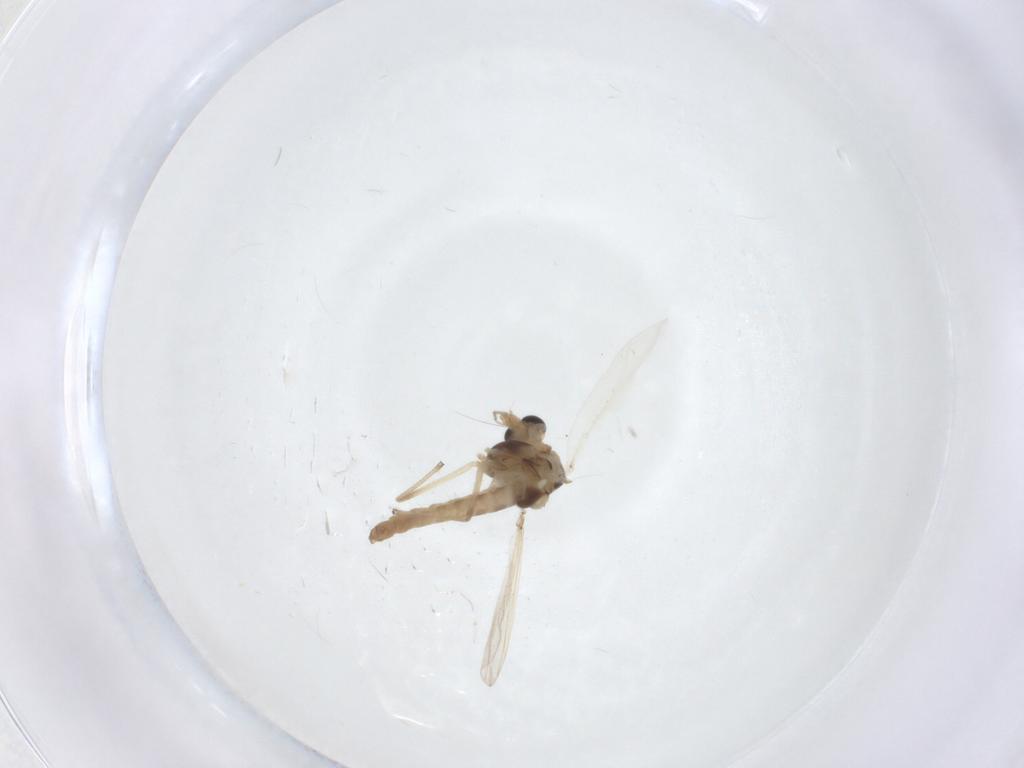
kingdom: Animalia
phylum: Arthropoda
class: Insecta
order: Diptera
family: Chironomidae
